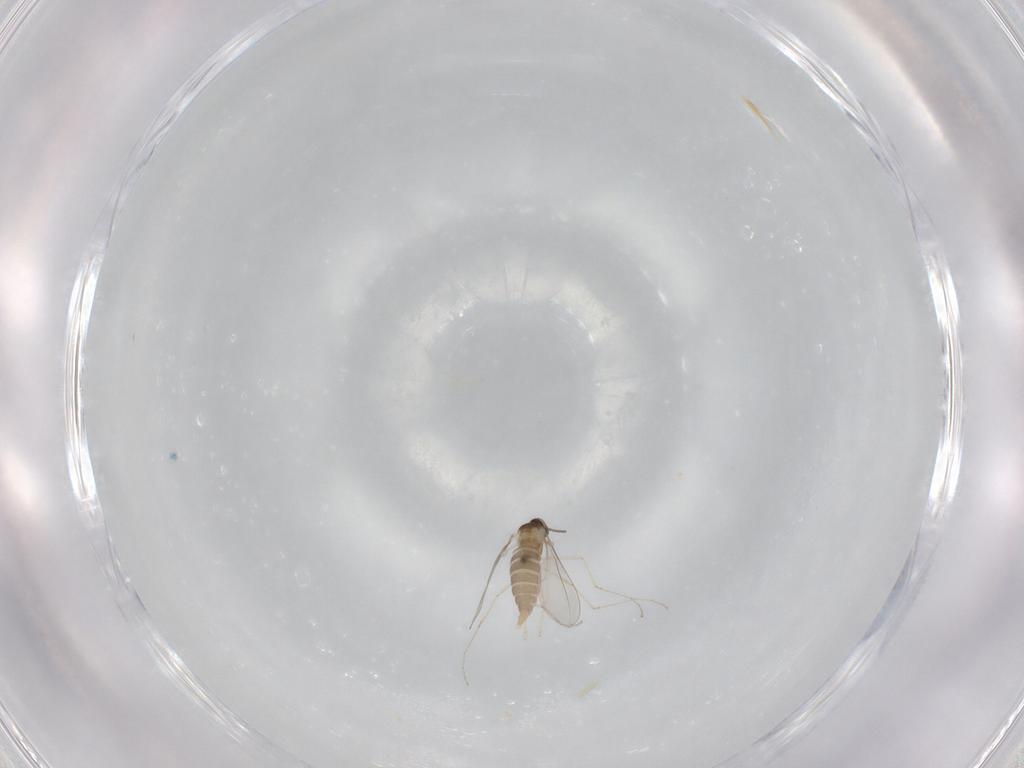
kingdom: Animalia
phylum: Arthropoda
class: Insecta
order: Diptera
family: Cecidomyiidae
